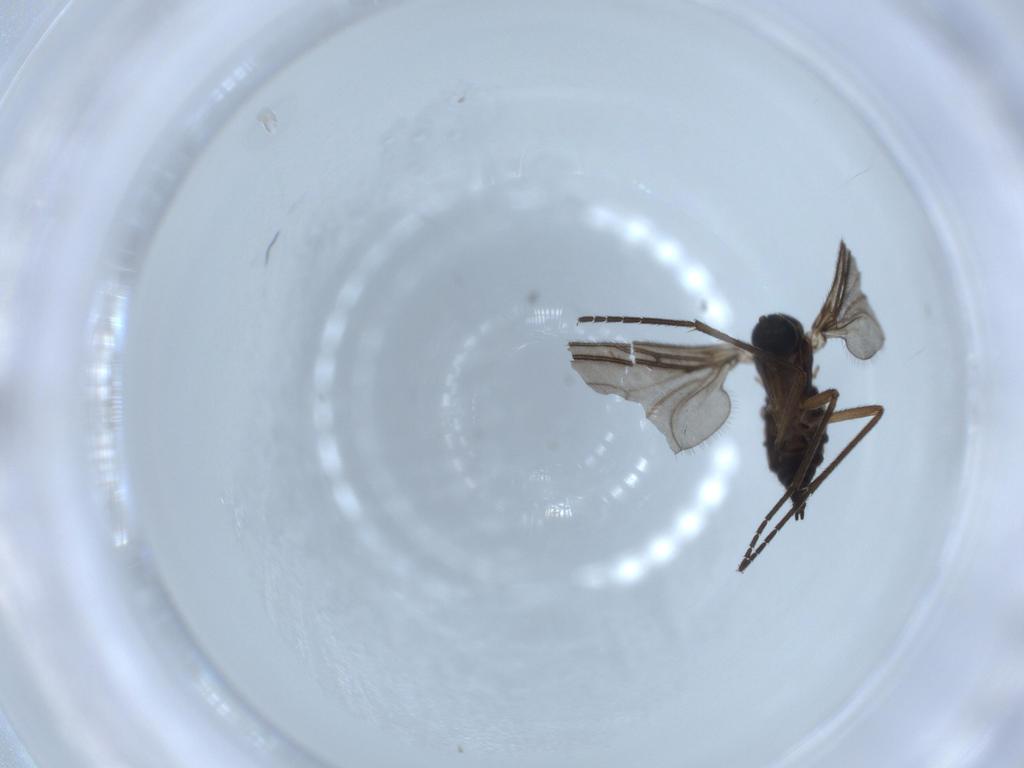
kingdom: Animalia
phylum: Arthropoda
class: Insecta
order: Diptera
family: Sciaridae
